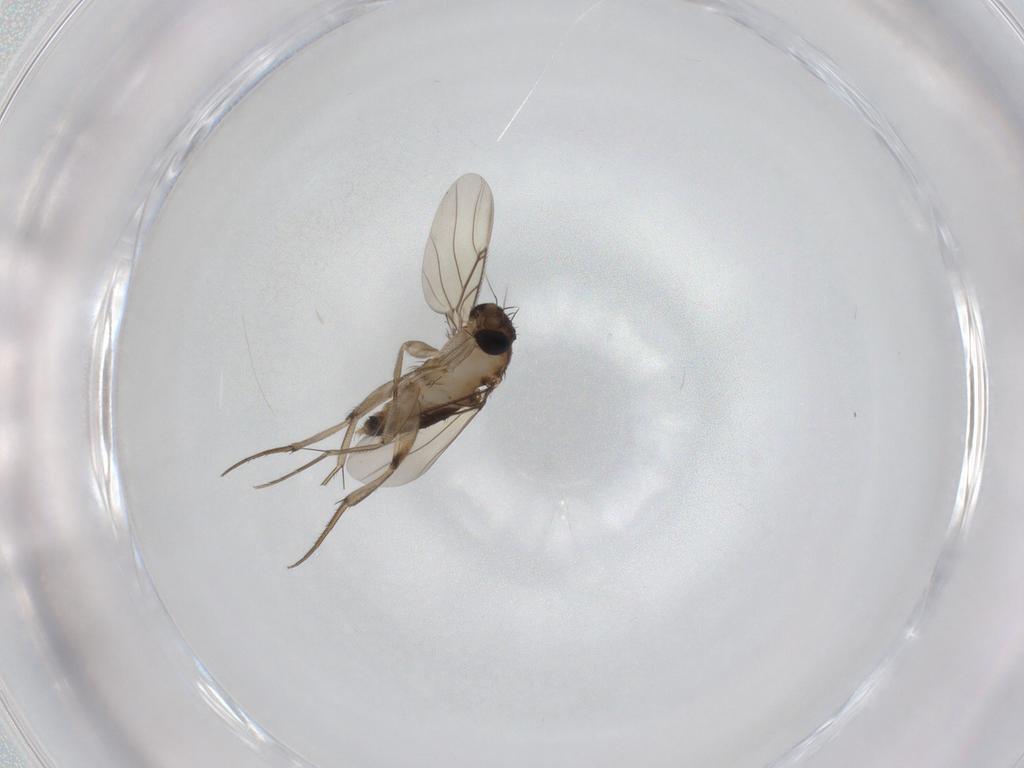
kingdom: Animalia
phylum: Arthropoda
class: Insecta
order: Diptera
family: Phoridae
